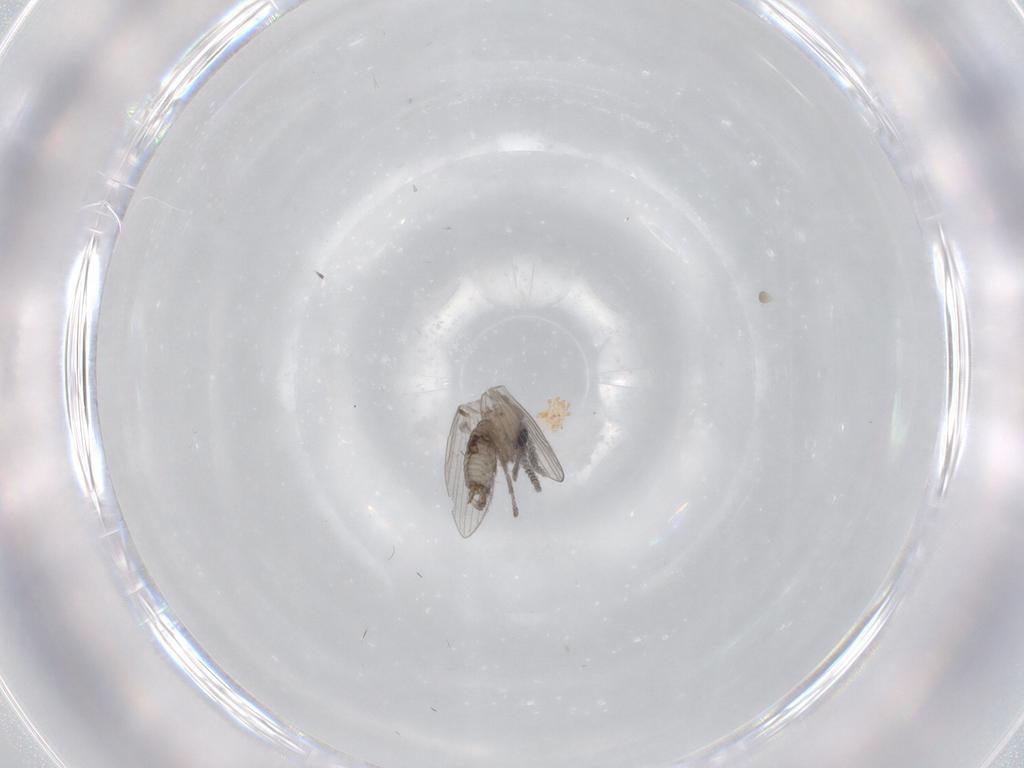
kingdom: Animalia
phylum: Arthropoda
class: Insecta
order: Diptera
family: Psychodidae
